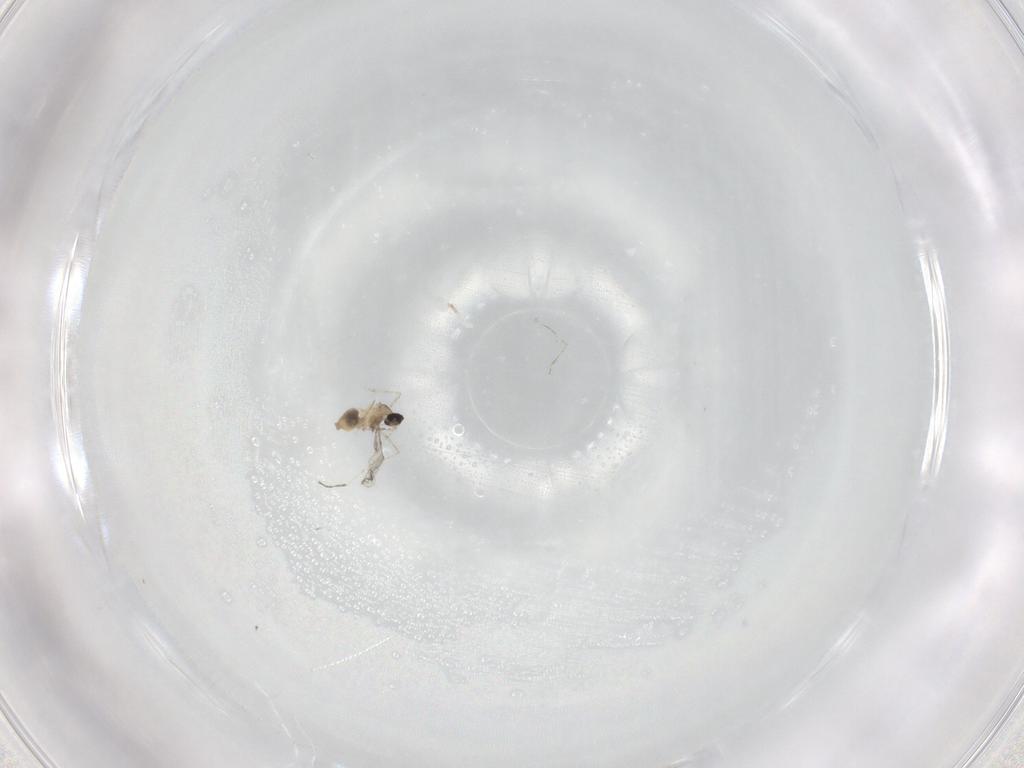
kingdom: Animalia
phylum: Arthropoda
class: Insecta
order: Diptera
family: Cecidomyiidae
